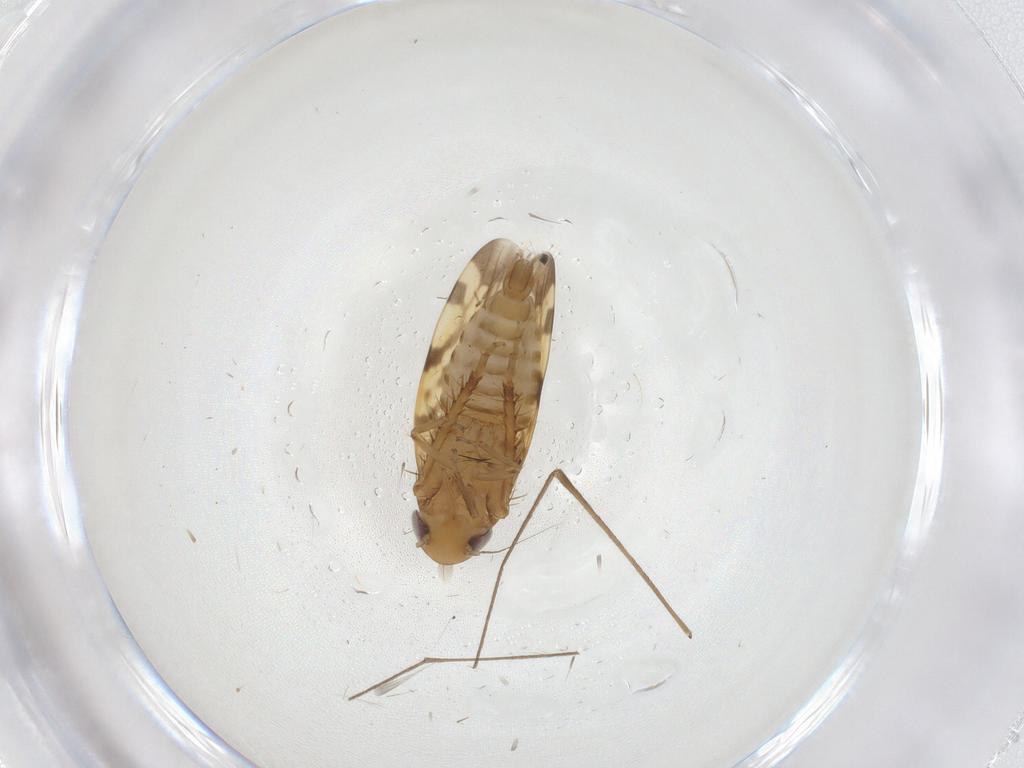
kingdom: Animalia
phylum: Arthropoda
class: Insecta
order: Hemiptera
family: Cicadellidae
